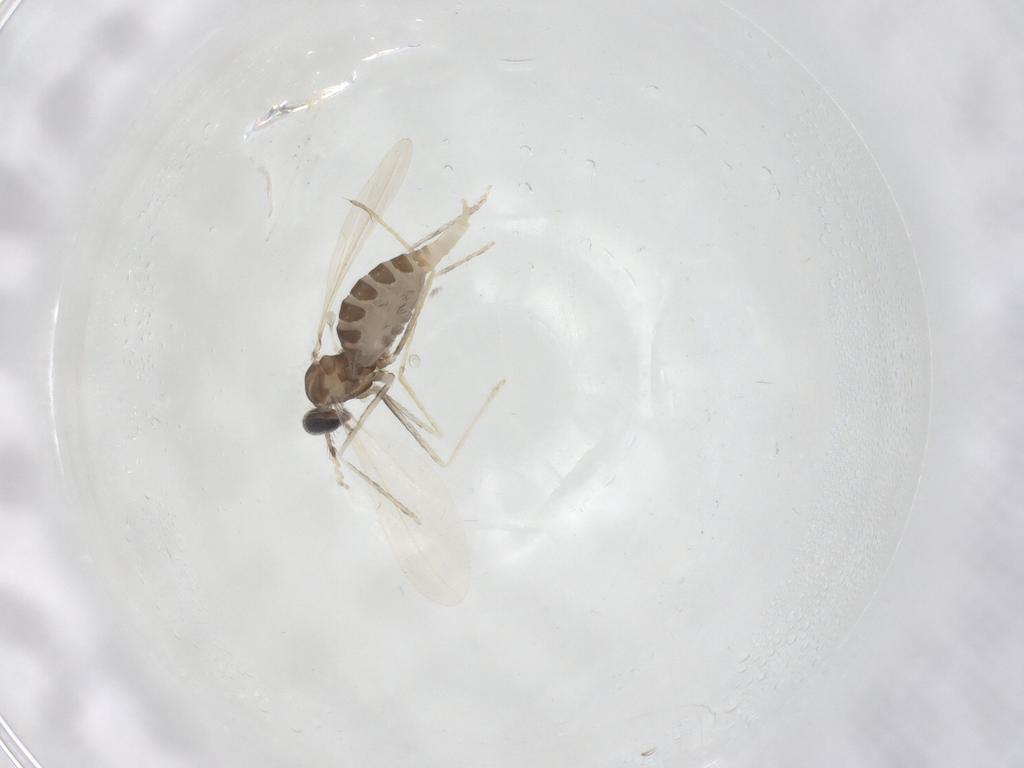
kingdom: Animalia
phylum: Arthropoda
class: Insecta
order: Diptera
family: Cecidomyiidae
